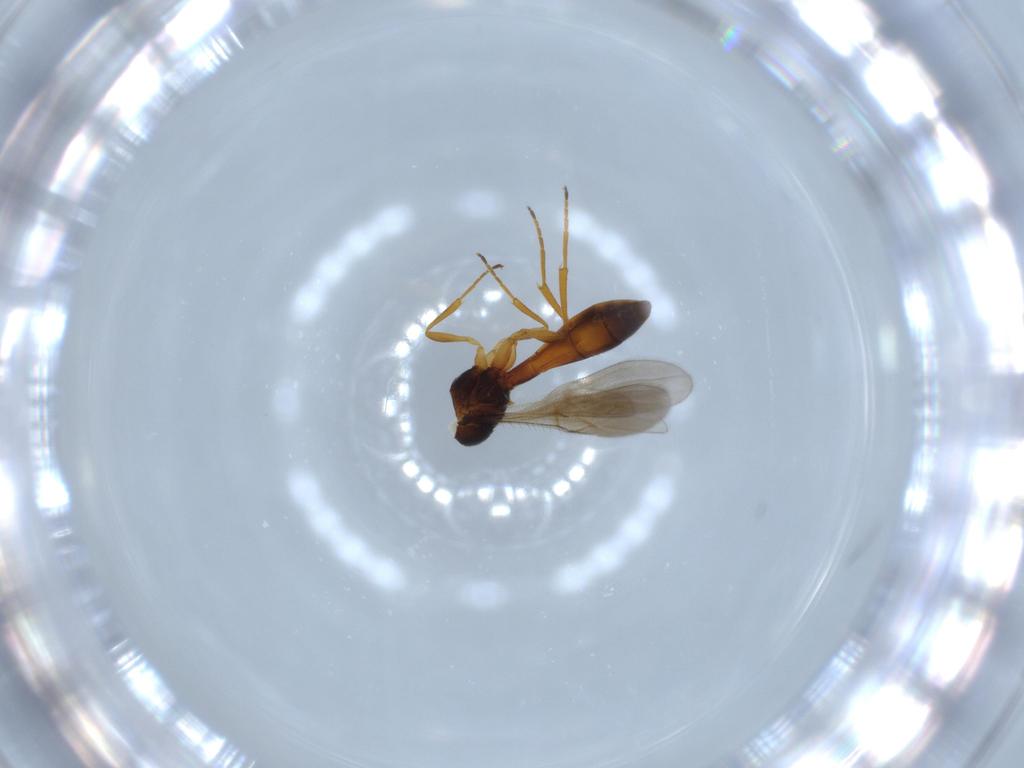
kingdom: Animalia
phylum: Arthropoda
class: Insecta
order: Hymenoptera
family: Scelionidae
